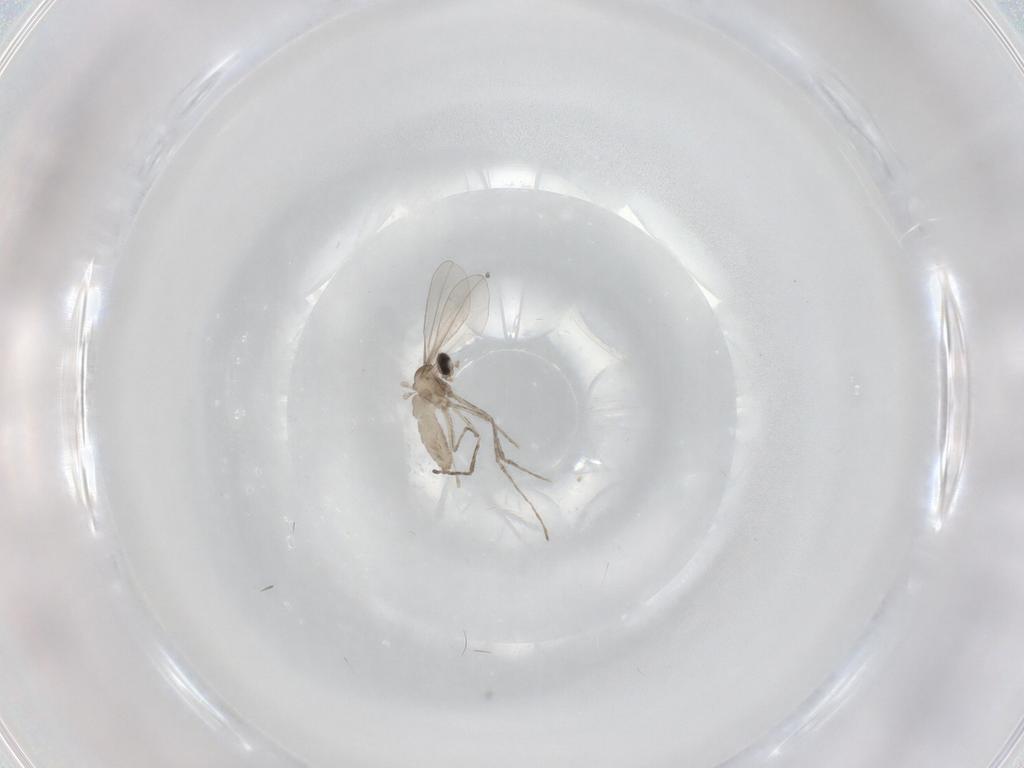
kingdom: Animalia
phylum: Arthropoda
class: Insecta
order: Diptera
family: Cecidomyiidae
